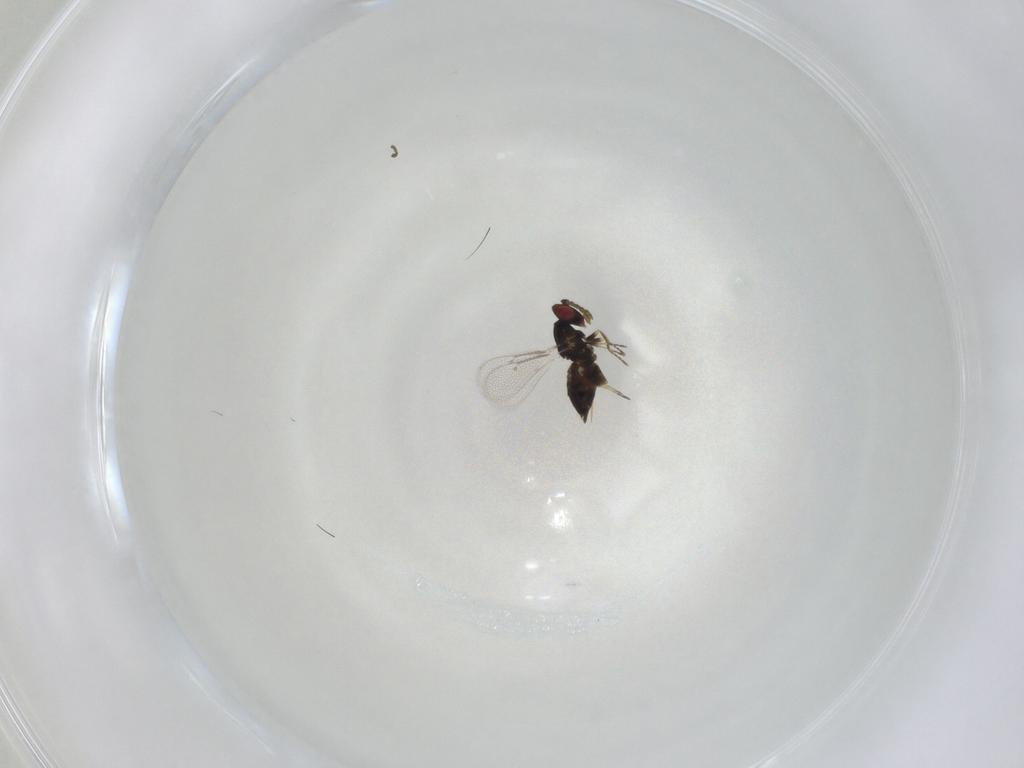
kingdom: Animalia
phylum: Arthropoda
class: Insecta
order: Hymenoptera
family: Eulophidae
